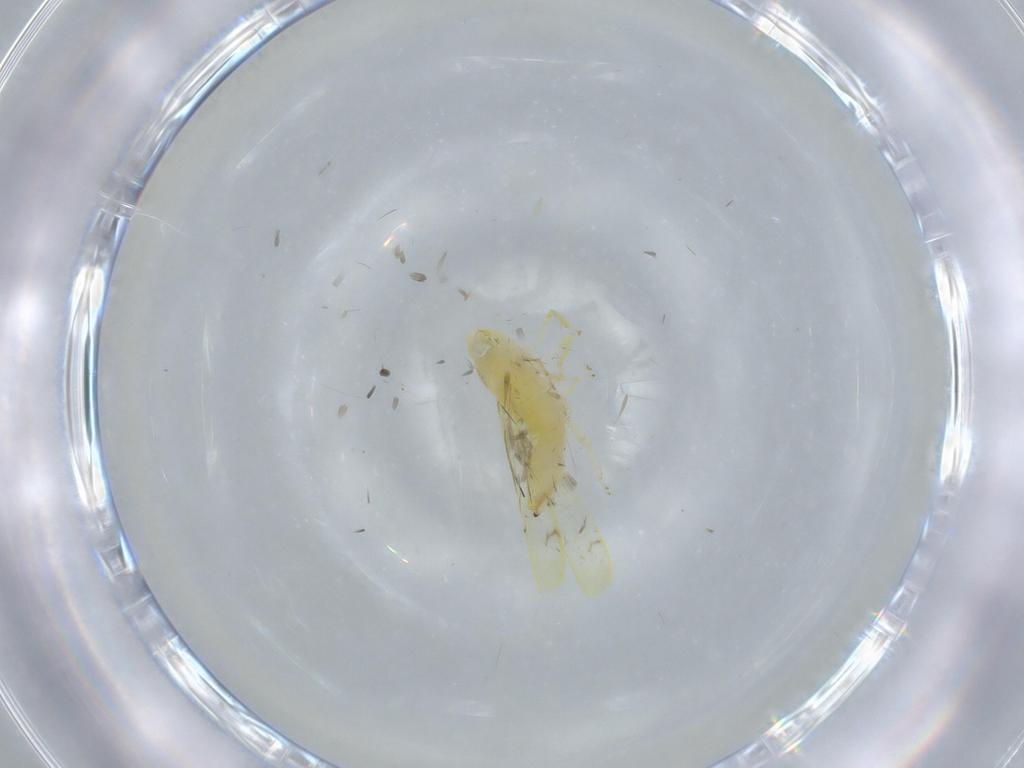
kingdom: Animalia
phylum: Arthropoda
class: Insecta
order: Hemiptera
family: Cicadellidae
